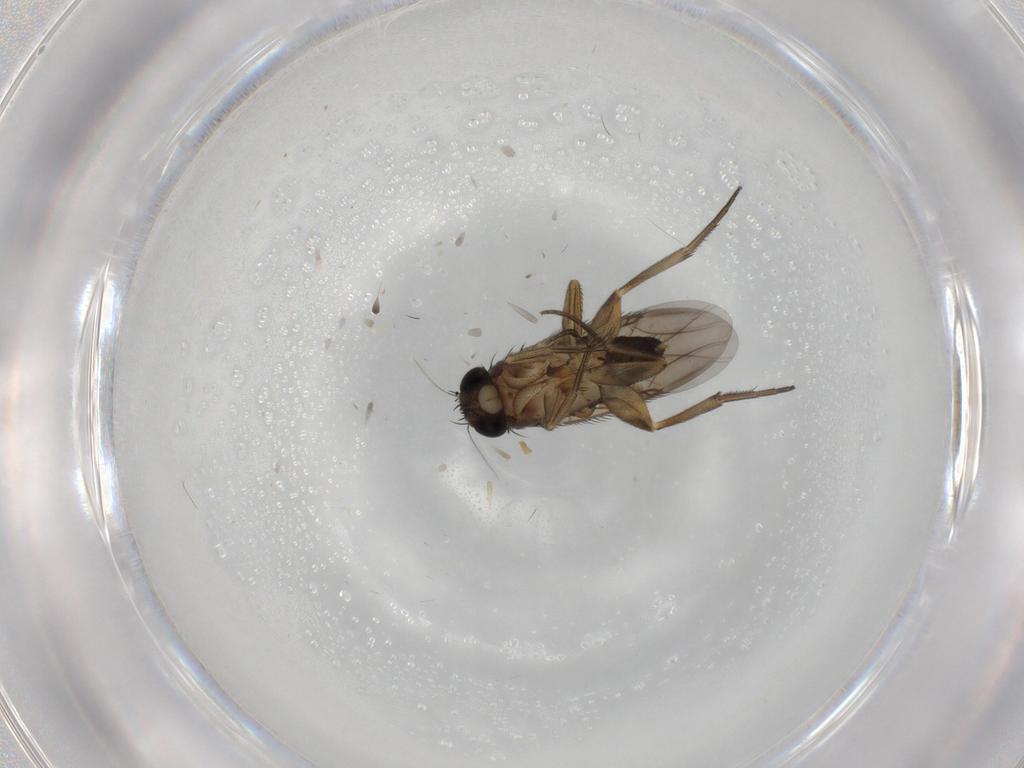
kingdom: Animalia
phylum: Arthropoda
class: Insecta
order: Diptera
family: Phoridae
